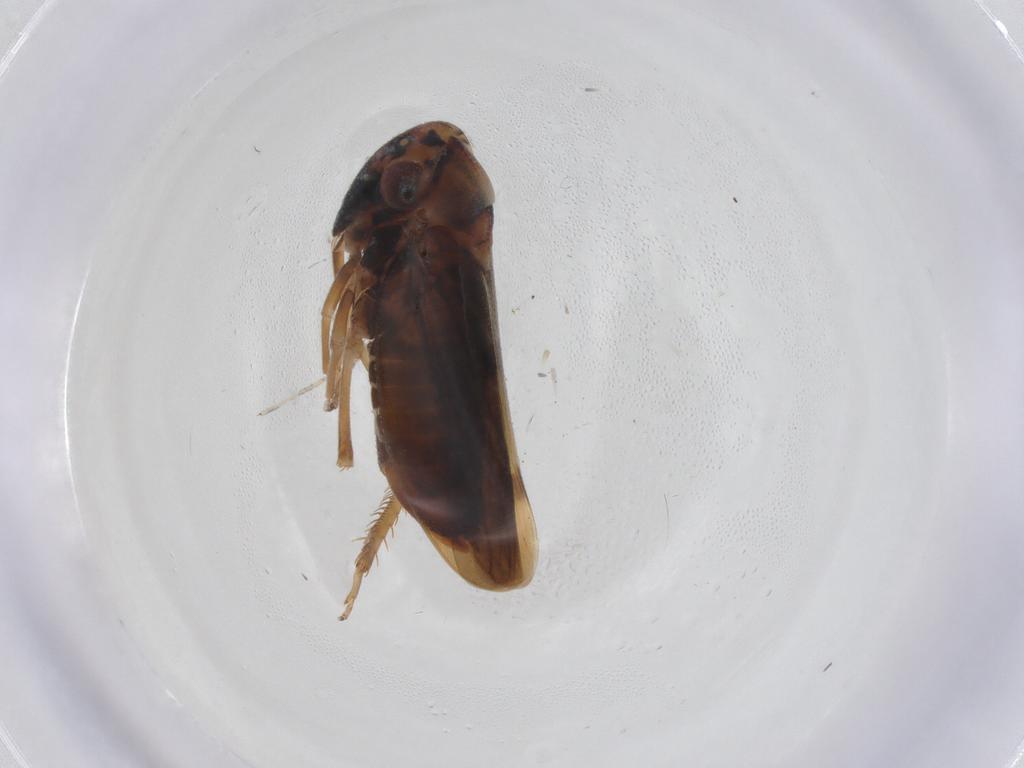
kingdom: Animalia
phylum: Arthropoda
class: Insecta
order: Hemiptera
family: Cicadellidae
